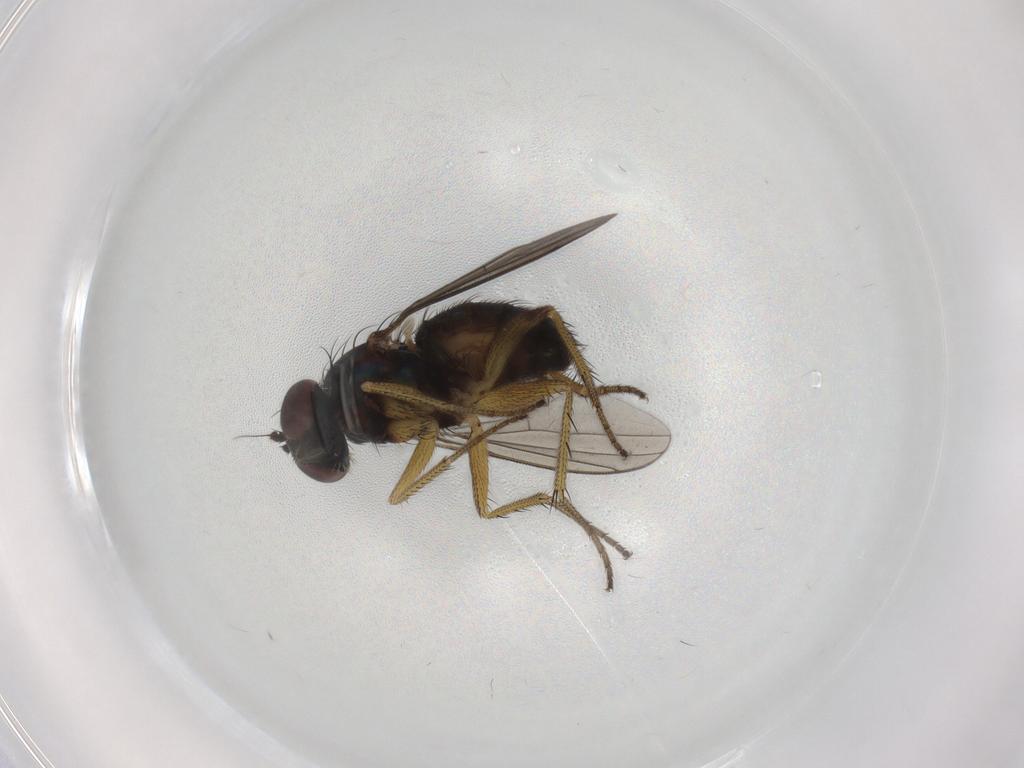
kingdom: Animalia
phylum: Arthropoda
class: Insecta
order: Diptera
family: Dolichopodidae
